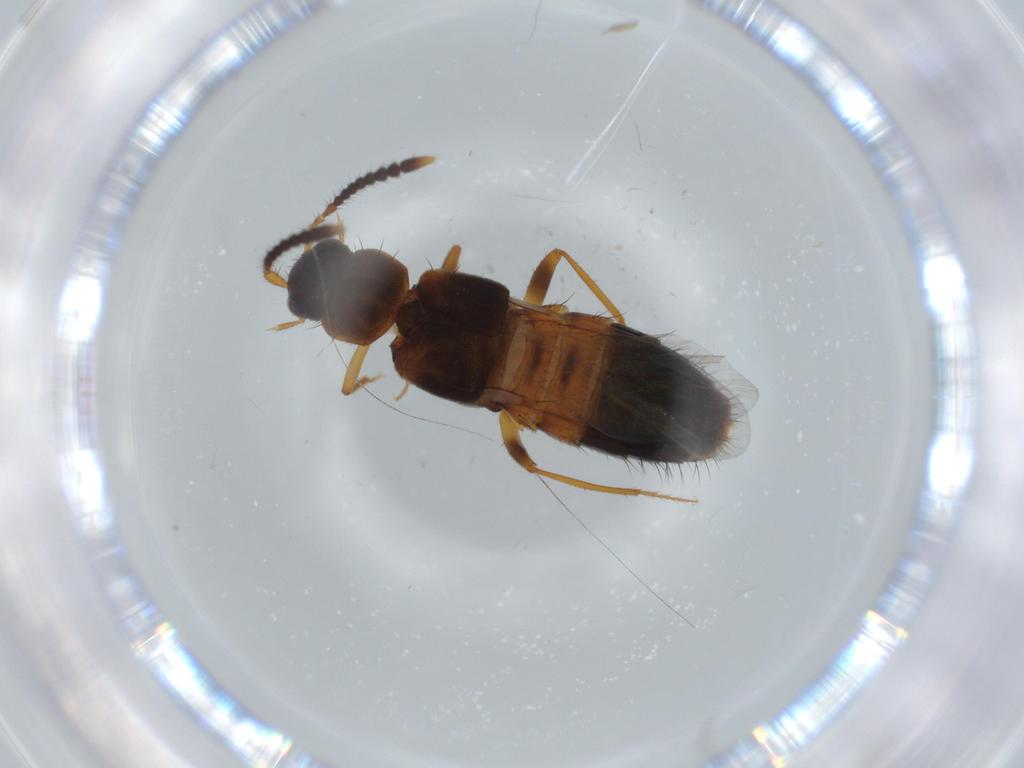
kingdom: Animalia
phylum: Arthropoda
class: Insecta
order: Coleoptera
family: Staphylinidae
